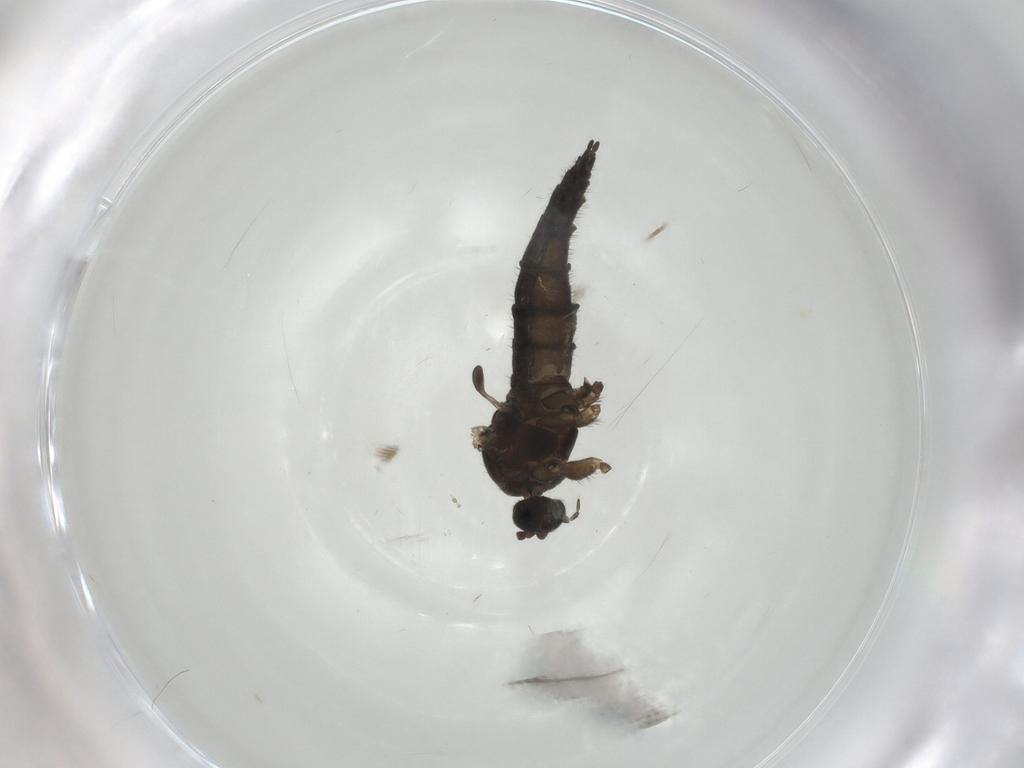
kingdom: Animalia
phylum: Arthropoda
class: Insecta
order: Diptera
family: Sciaridae
